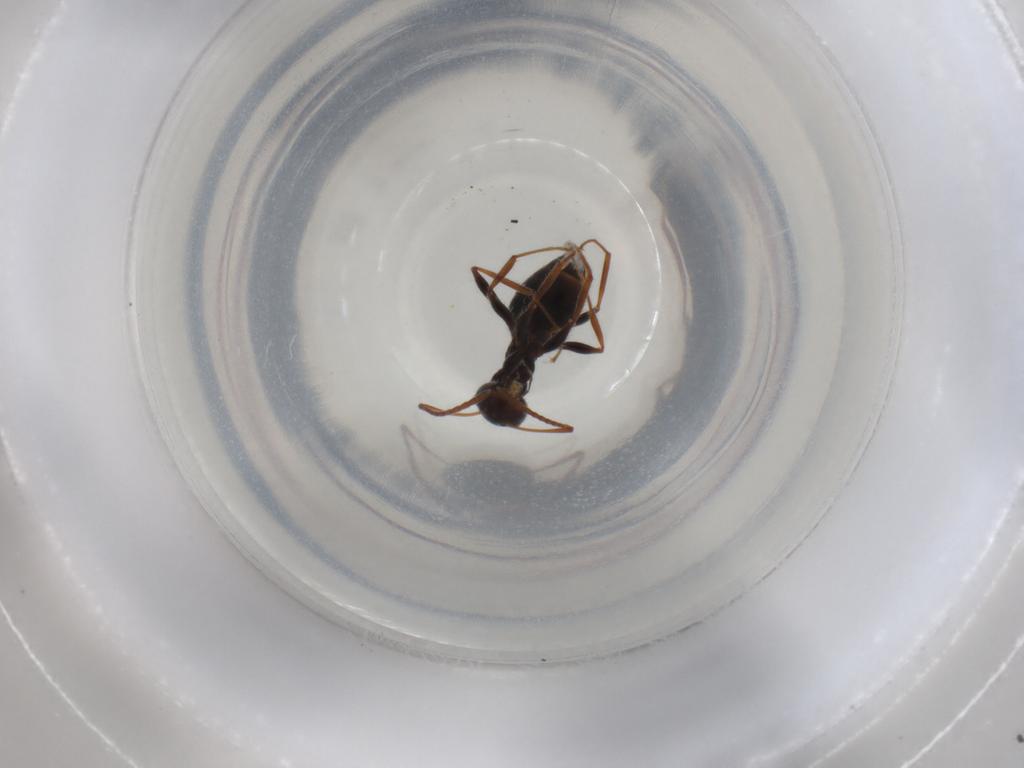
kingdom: Animalia
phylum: Arthropoda
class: Insecta
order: Hymenoptera
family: Formicidae
